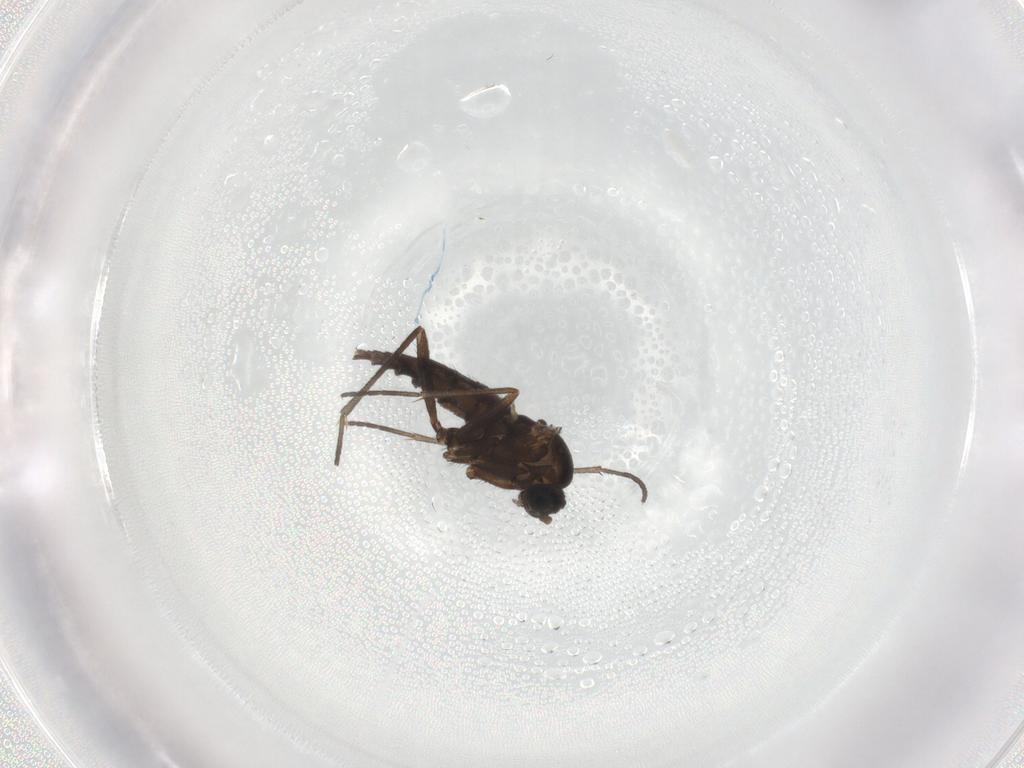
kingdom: Animalia
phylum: Arthropoda
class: Insecta
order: Diptera
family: Sciaridae
